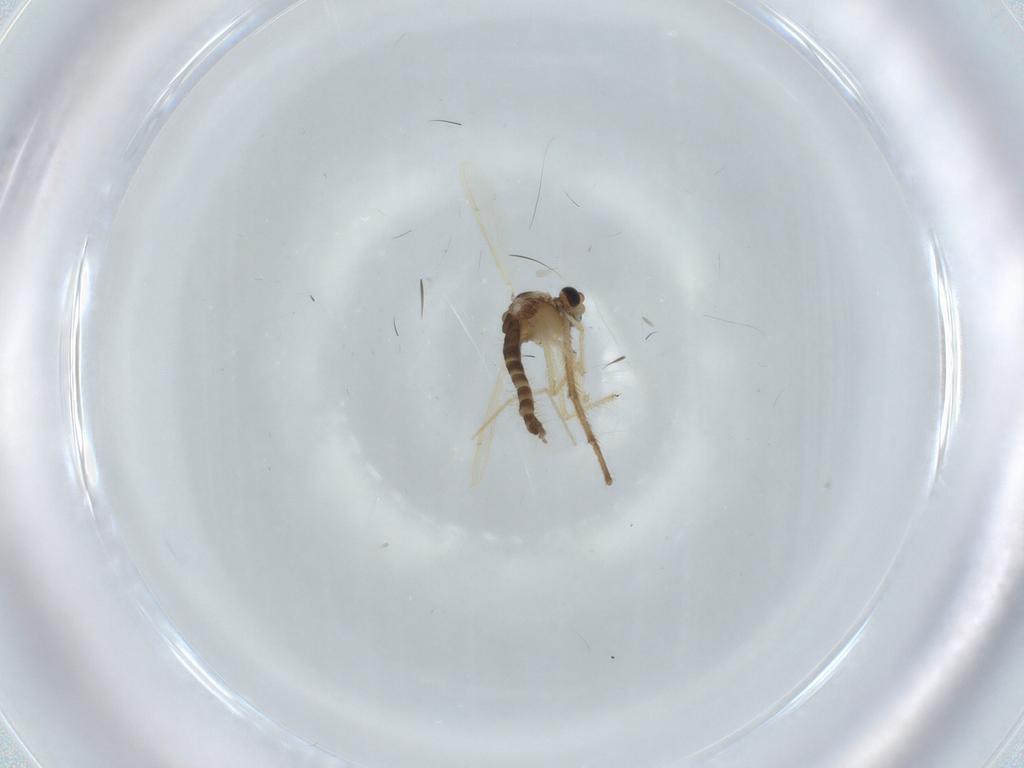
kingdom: Animalia
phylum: Arthropoda
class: Insecta
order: Diptera
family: Chironomidae
